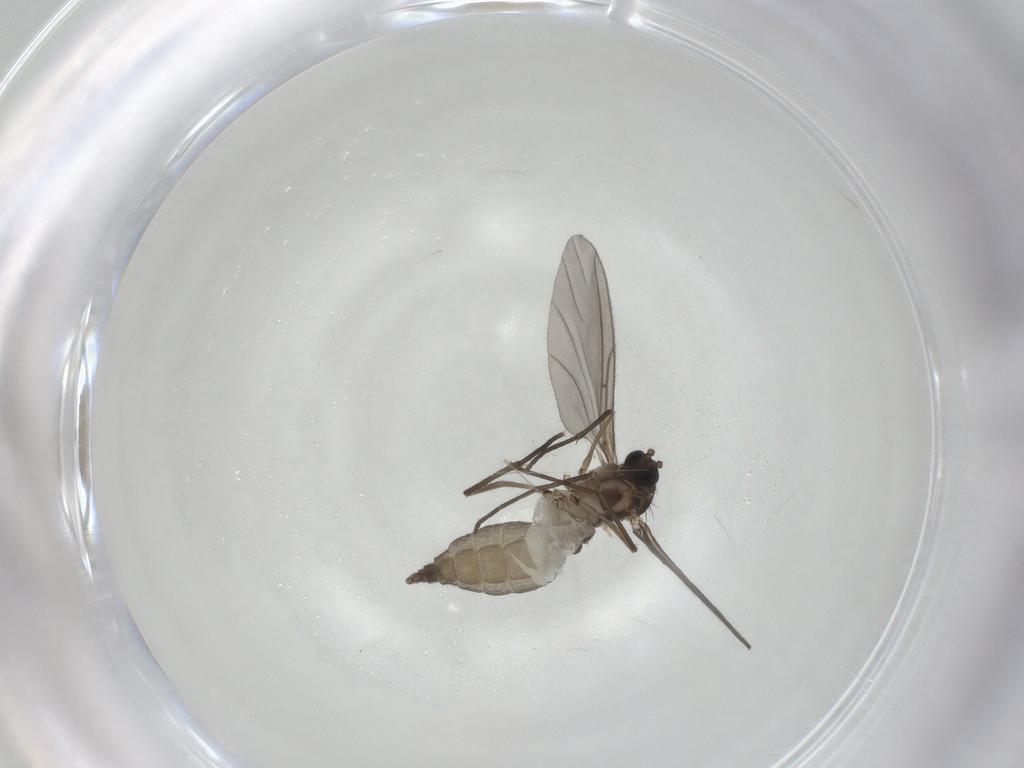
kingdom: Animalia
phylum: Arthropoda
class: Insecta
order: Diptera
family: Sciaridae
